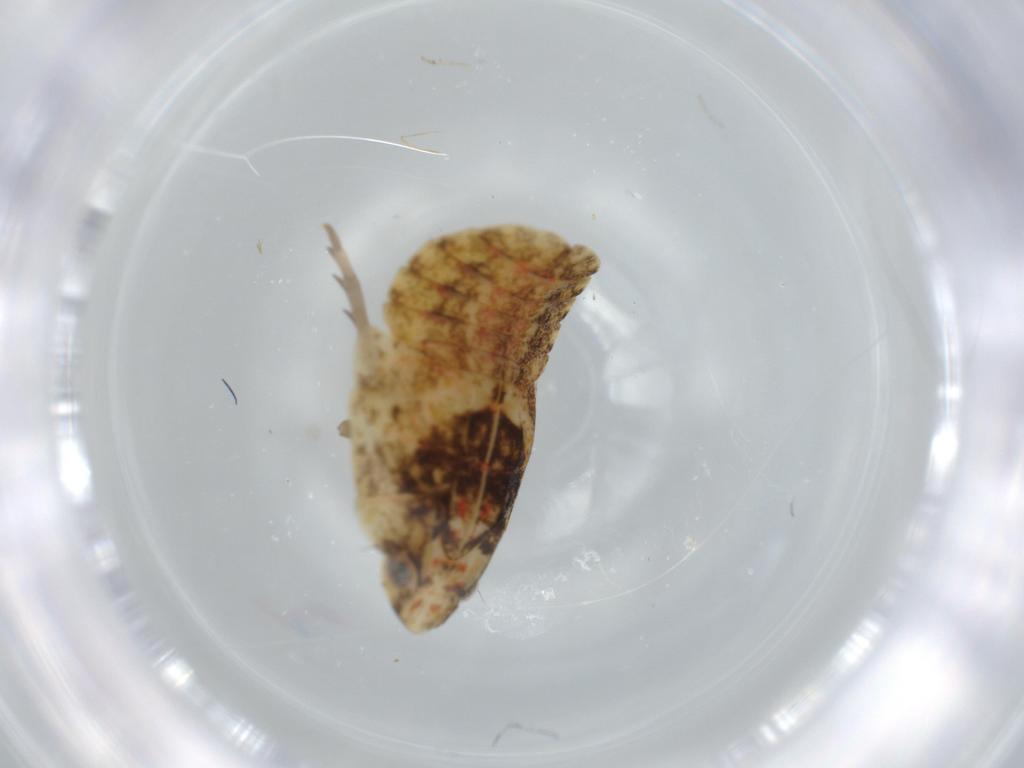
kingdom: Animalia
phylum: Arthropoda
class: Insecta
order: Hemiptera
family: Flatidae
